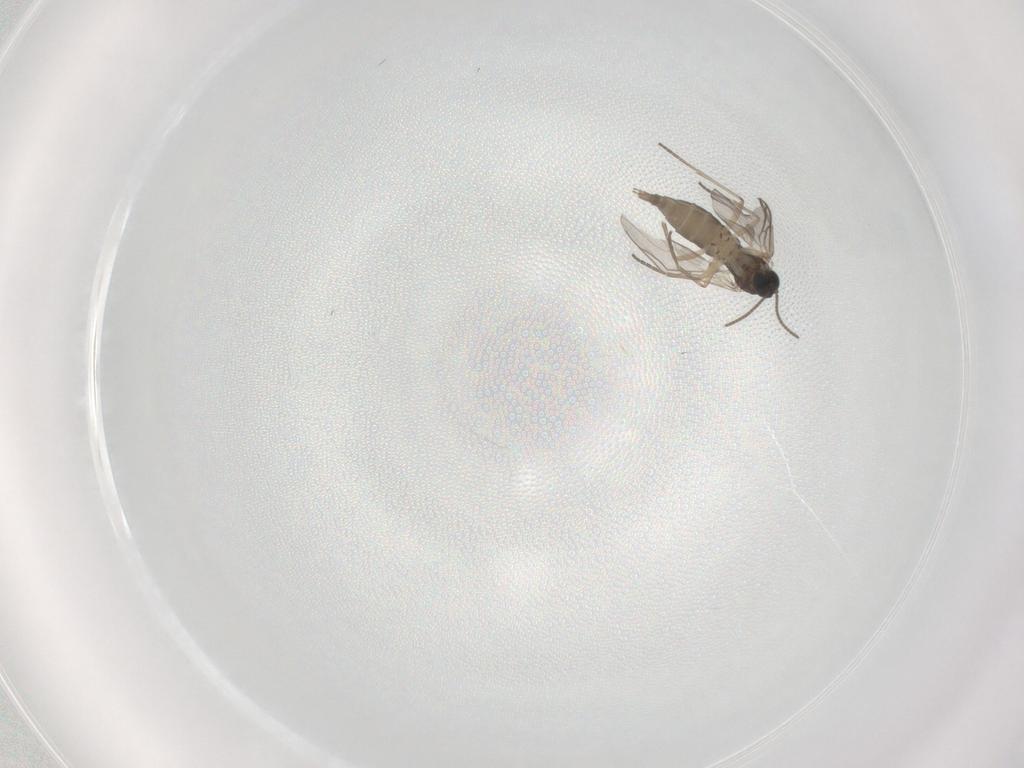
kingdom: Animalia
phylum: Arthropoda
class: Insecta
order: Diptera
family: Sciaridae
